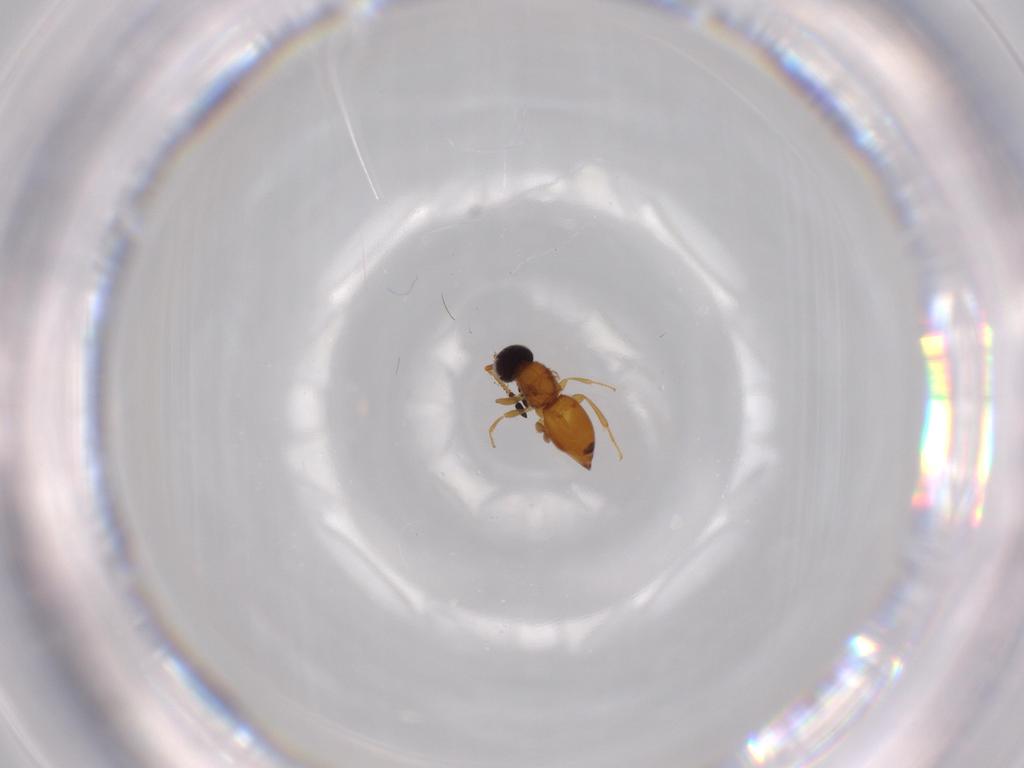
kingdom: Animalia
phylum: Arthropoda
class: Insecta
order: Hymenoptera
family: Ceraphronidae
